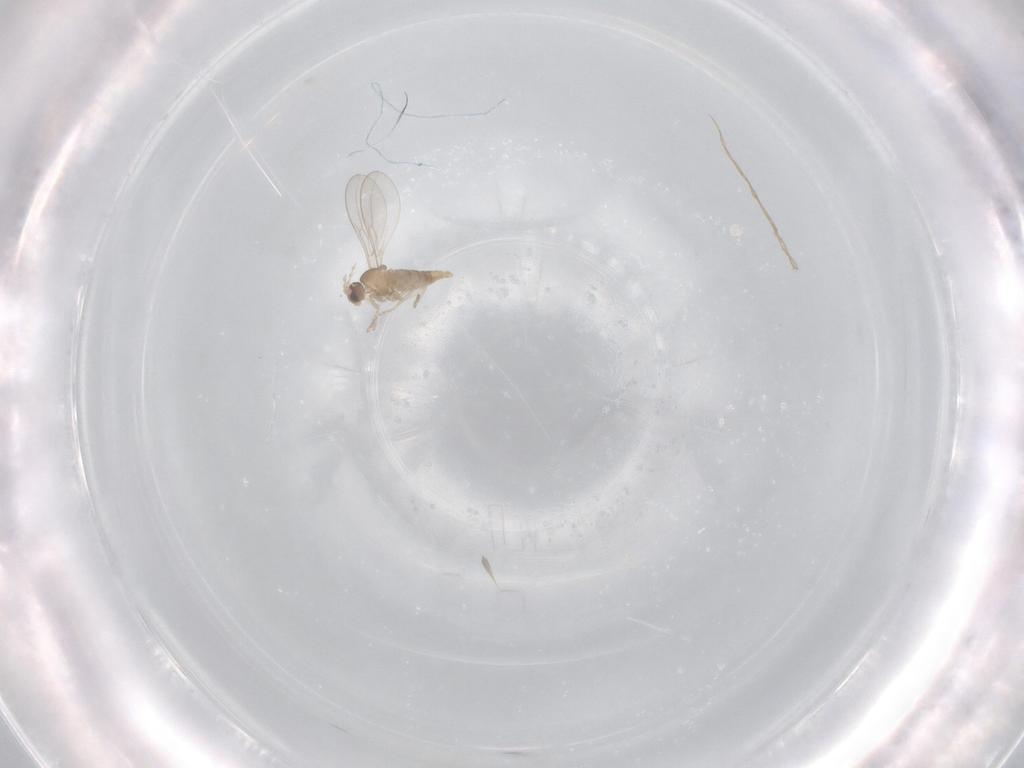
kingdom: Animalia
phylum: Arthropoda
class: Insecta
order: Diptera
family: Cecidomyiidae
